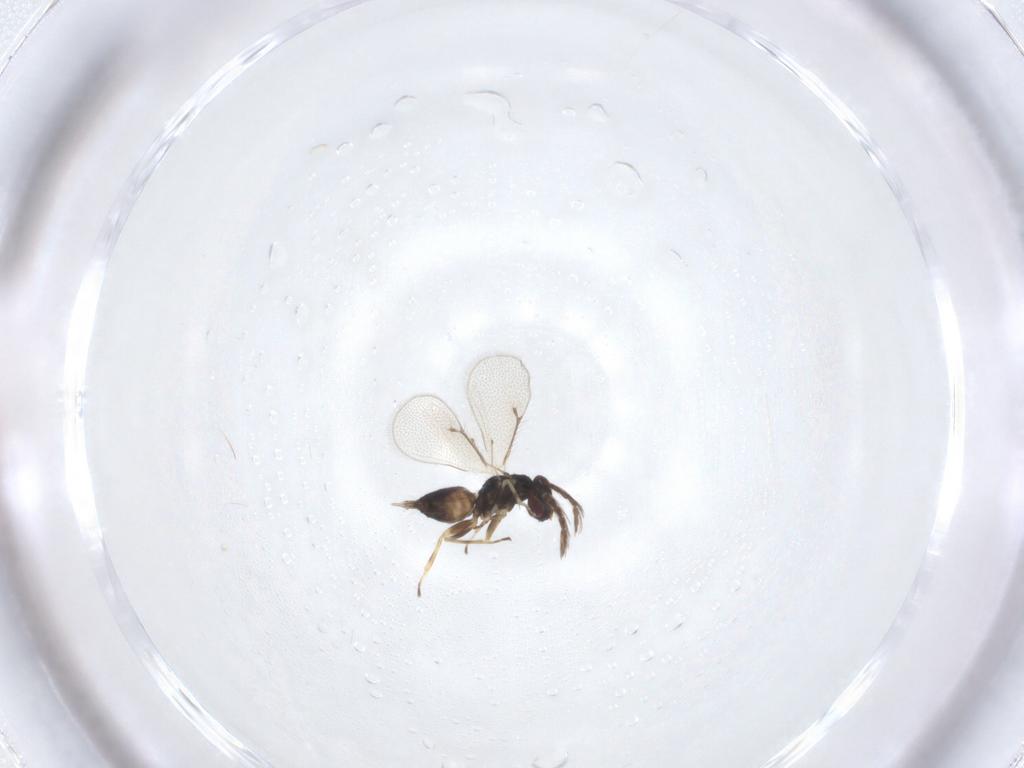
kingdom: Animalia
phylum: Arthropoda
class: Insecta
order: Hymenoptera
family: Eulophidae
